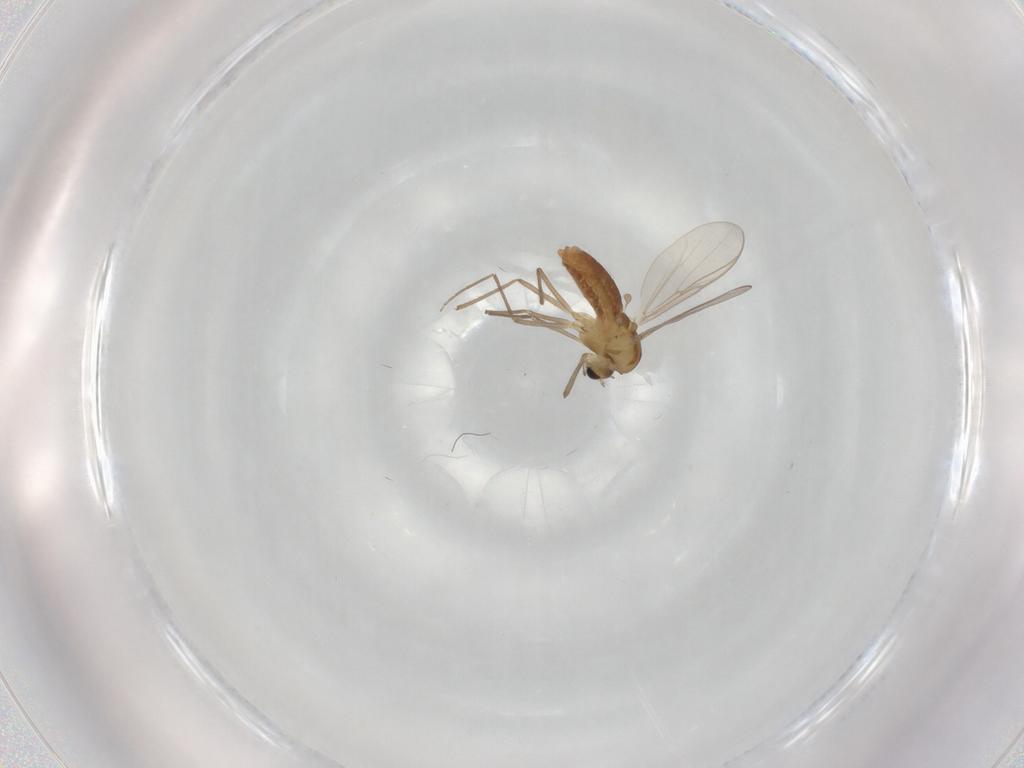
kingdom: Animalia
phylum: Arthropoda
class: Insecta
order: Diptera
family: Chironomidae
